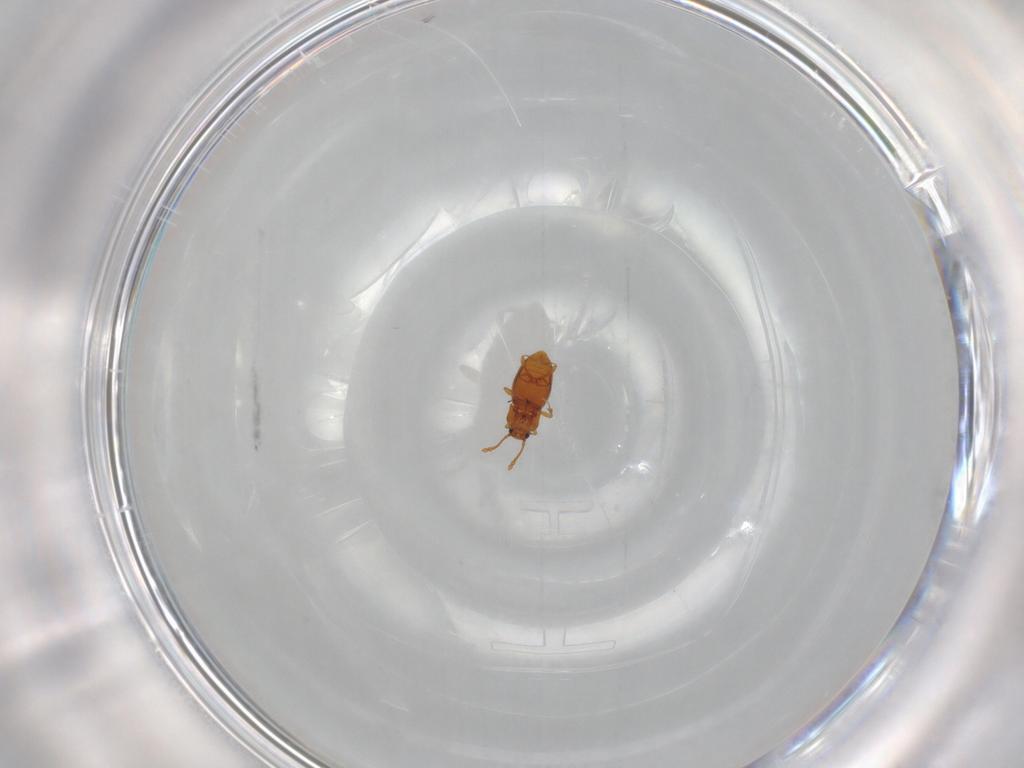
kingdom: Animalia
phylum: Arthropoda
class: Insecta
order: Coleoptera
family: Staphylinidae
